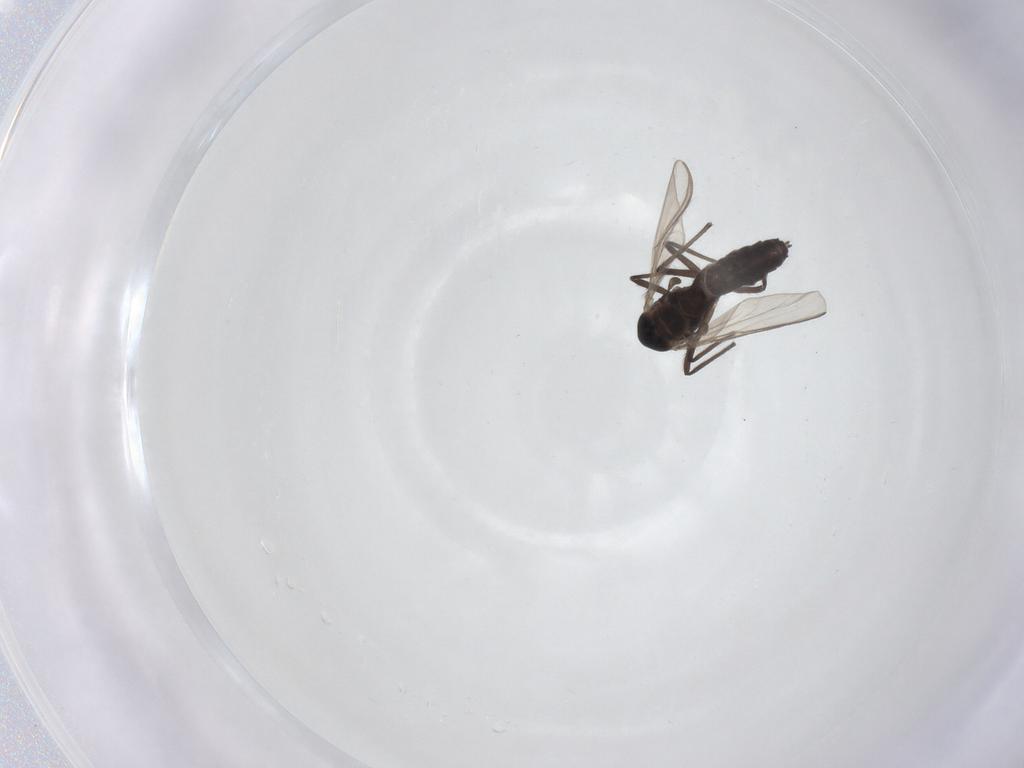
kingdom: Animalia
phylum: Arthropoda
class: Insecta
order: Diptera
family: Chironomidae
